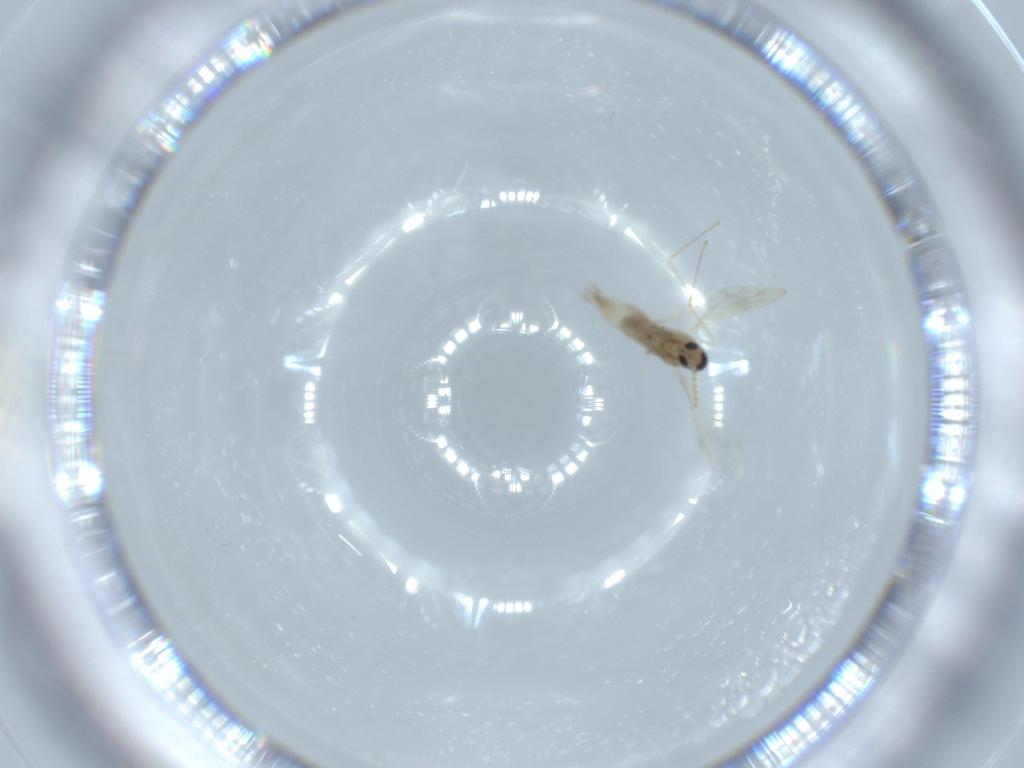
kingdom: Animalia
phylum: Arthropoda
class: Insecta
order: Diptera
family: Cecidomyiidae
